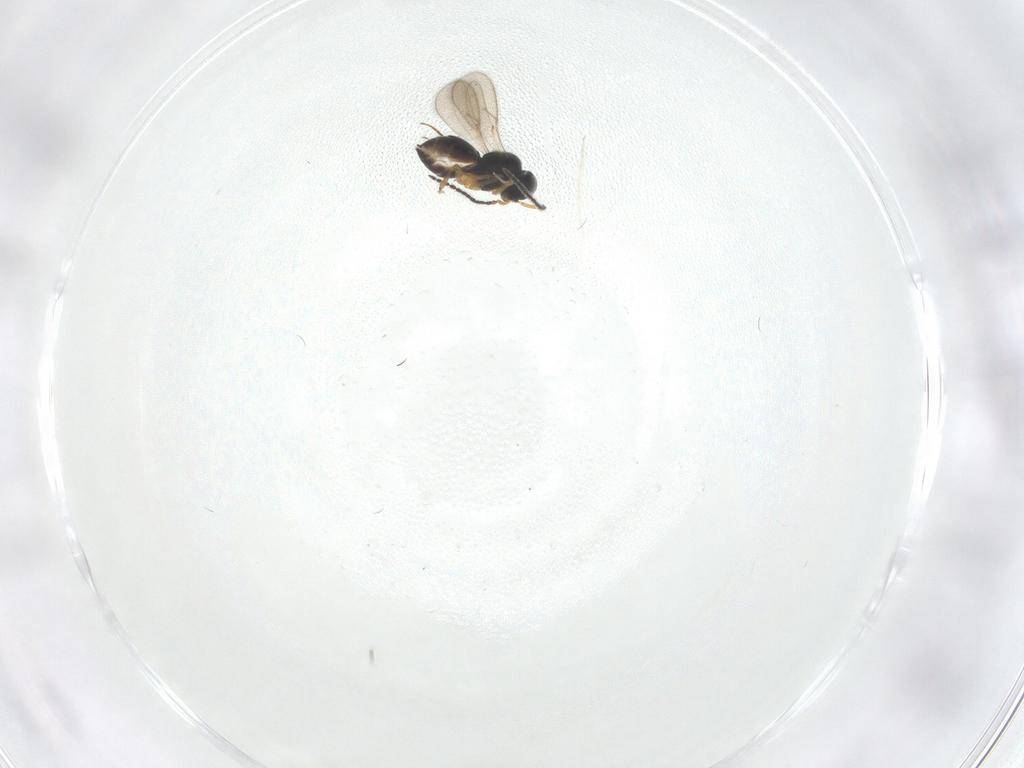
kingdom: Animalia
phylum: Arthropoda
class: Insecta
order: Hymenoptera
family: Scelionidae
